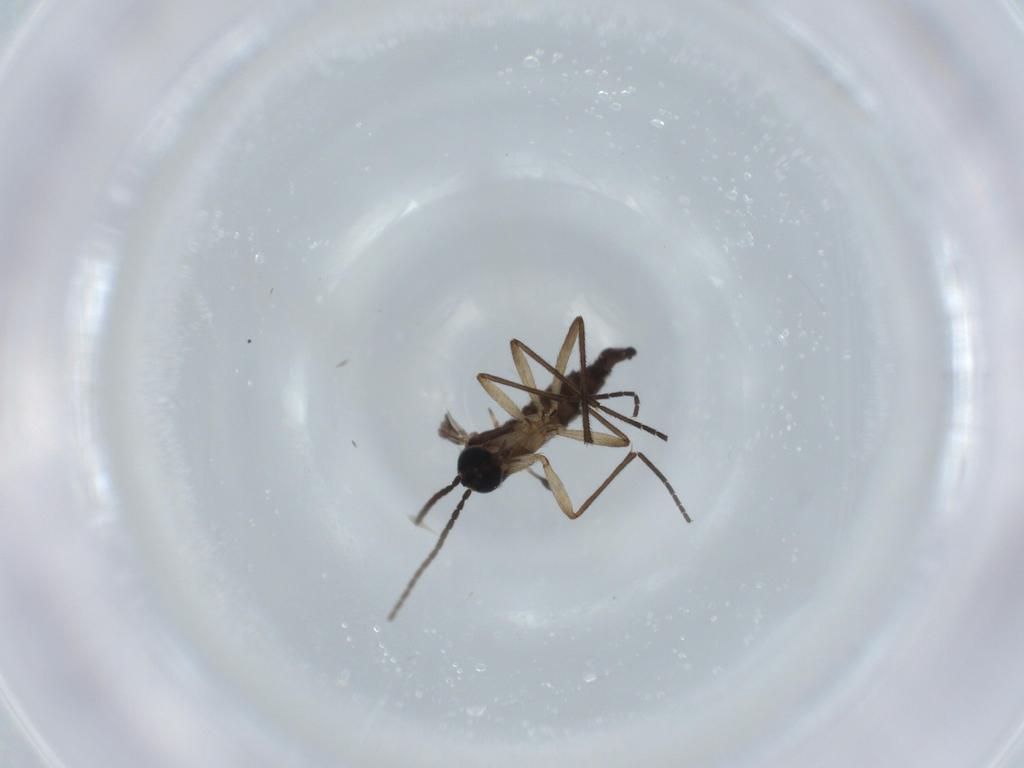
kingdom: Animalia
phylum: Arthropoda
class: Insecta
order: Diptera
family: Sciaridae
